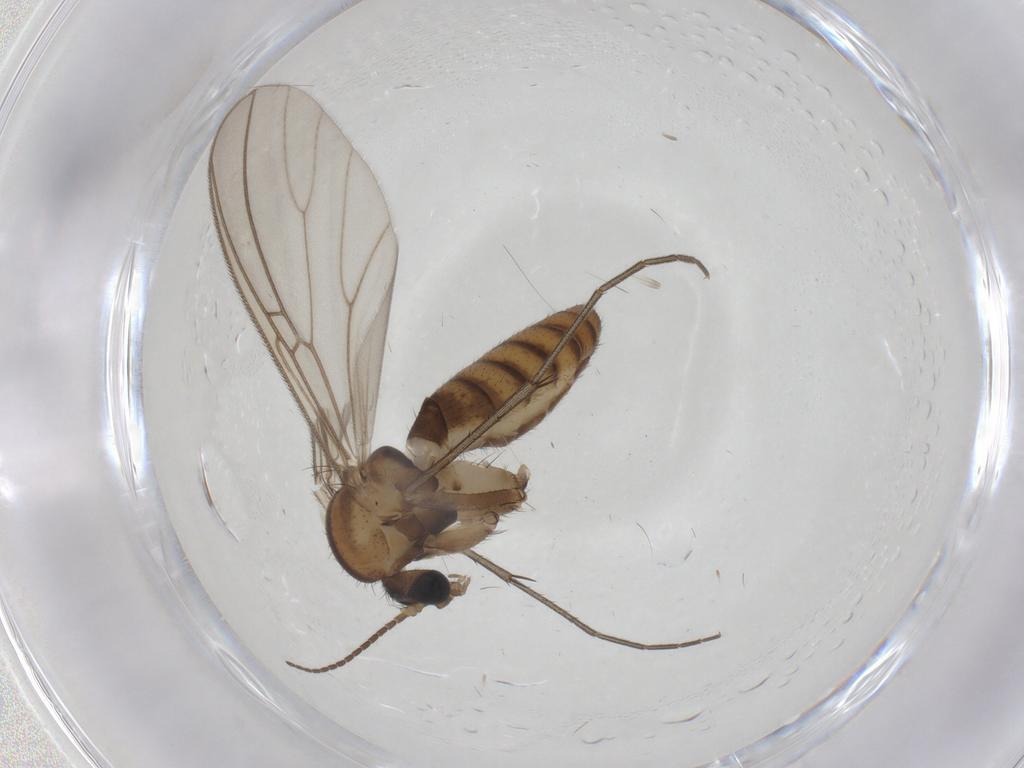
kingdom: Animalia
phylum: Arthropoda
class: Insecta
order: Diptera
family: Mycetophilidae
